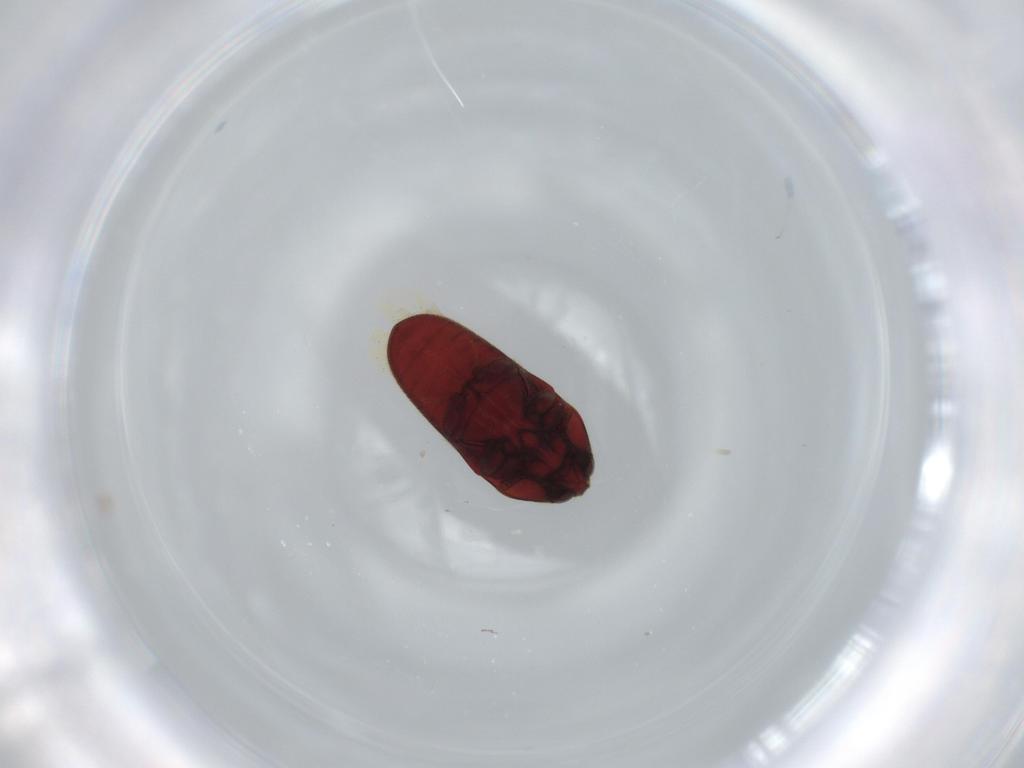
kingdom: Animalia
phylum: Arthropoda
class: Insecta
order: Coleoptera
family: Throscidae
